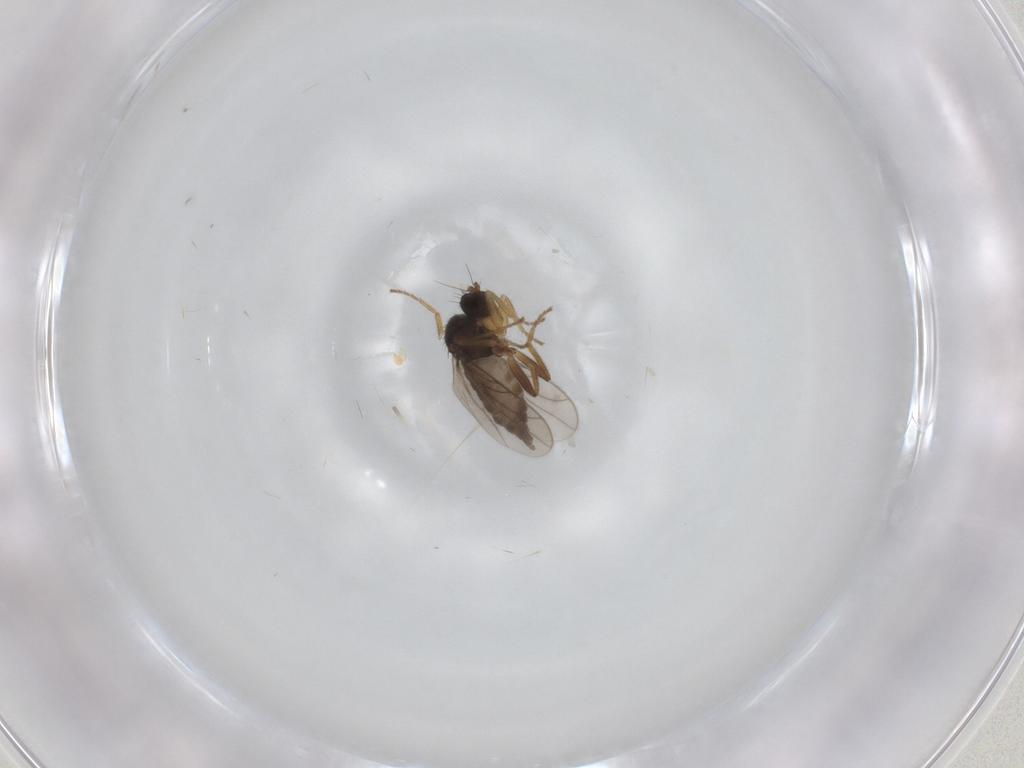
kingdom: Animalia
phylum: Arthropoda
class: Insecta
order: Diptera
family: Hybotidae
